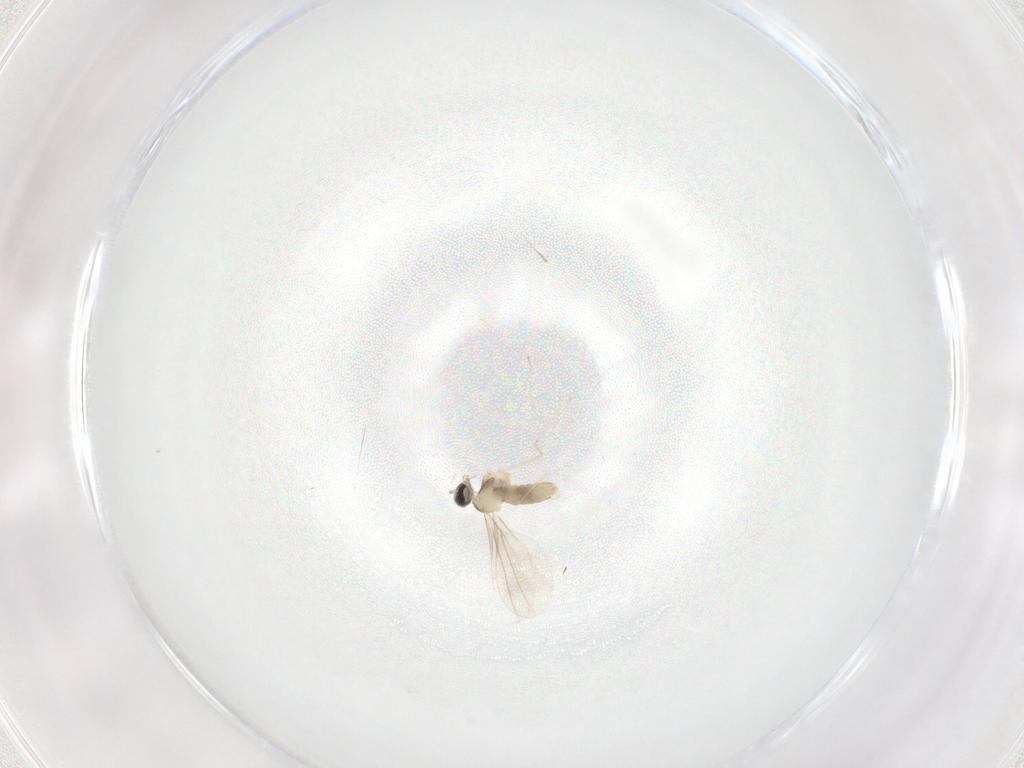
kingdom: Animalia
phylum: Arthropoda
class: Insecta
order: Diptera
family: Cecidomyiidae
